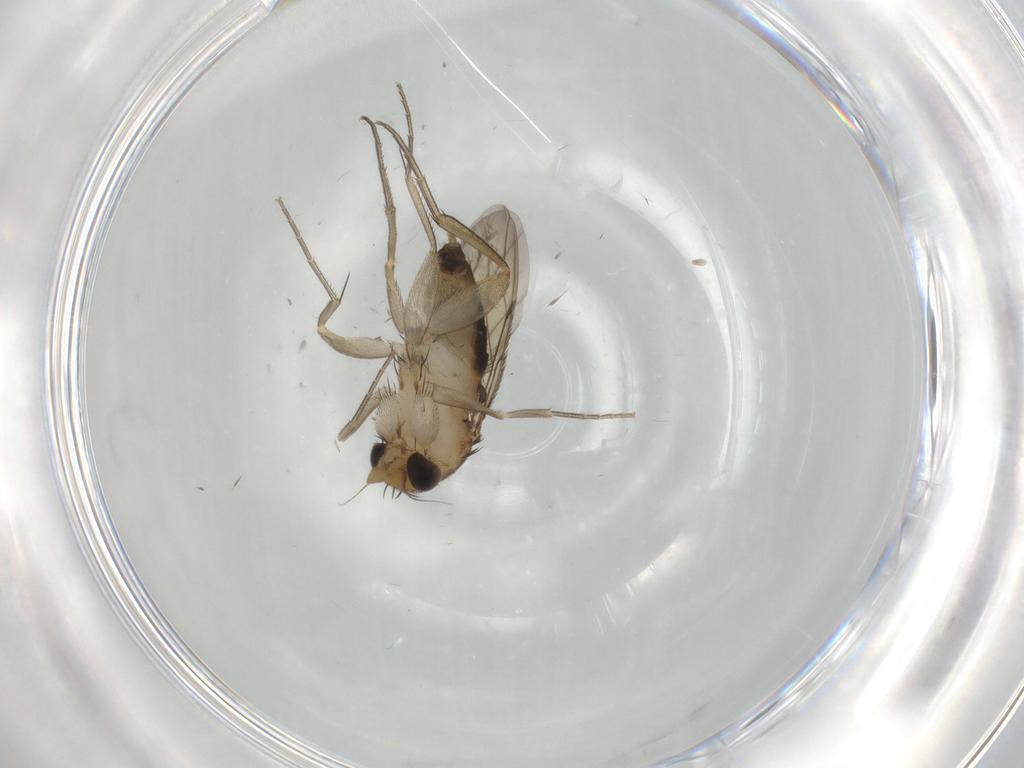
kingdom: Animalia
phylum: Arthropoda
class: Insecta
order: Diptera
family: Phoridae
